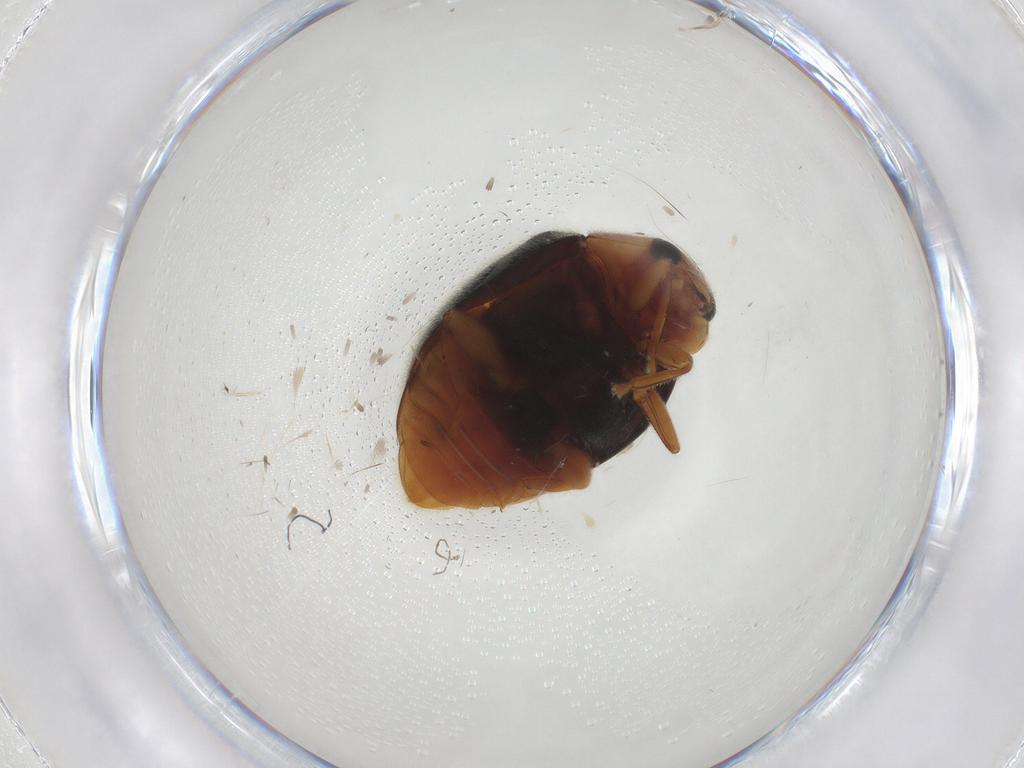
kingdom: Animalia
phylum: Arthropoda
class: Insecta
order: Coleoptera
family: Coccinellidae
